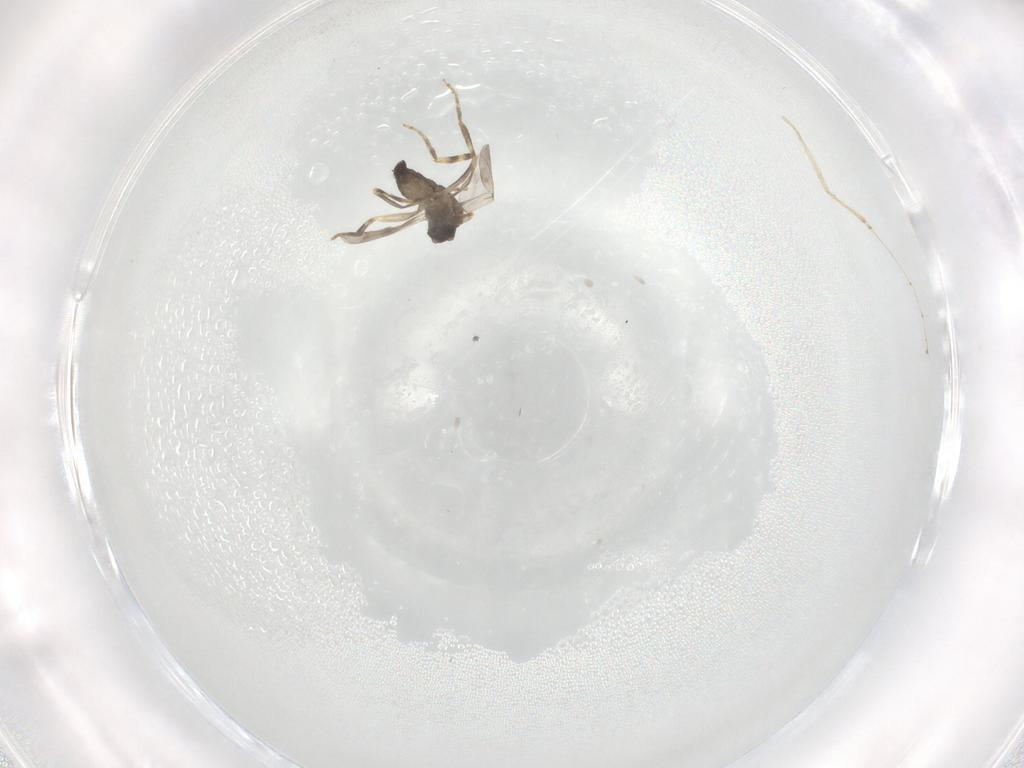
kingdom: Animalia
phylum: Arthropoda
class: Insecta
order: Diptera
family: Ceratopogonidae
